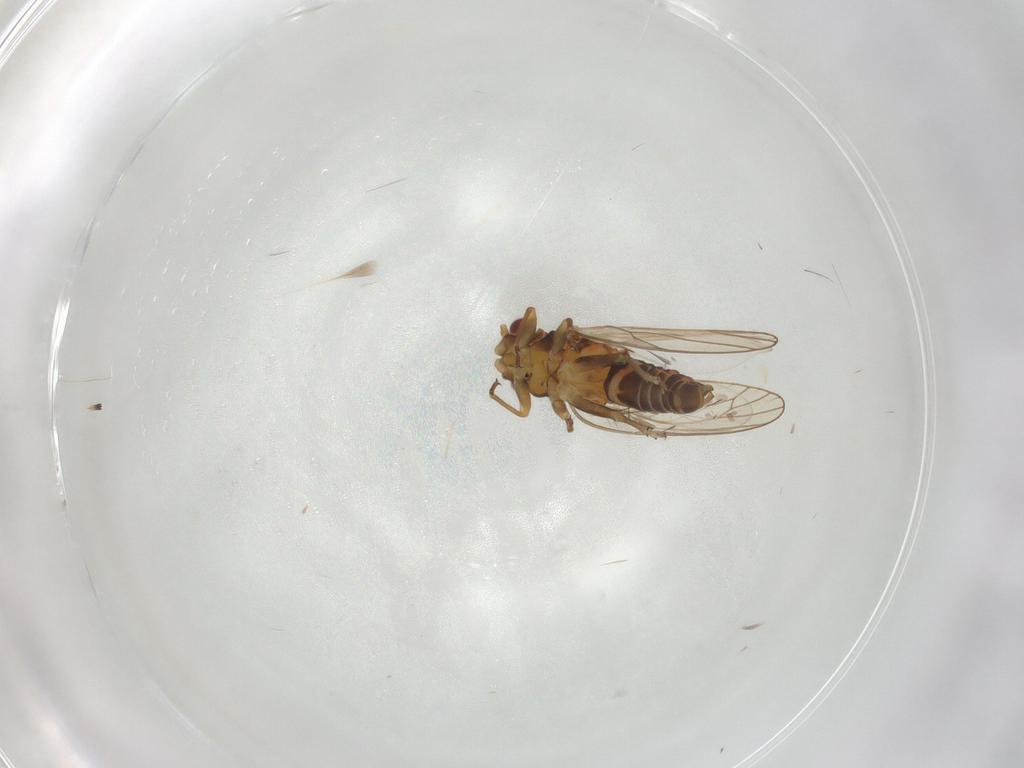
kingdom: Animalia
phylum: Arthropoda
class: Insecta
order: Hemiptera
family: Psyllidae
